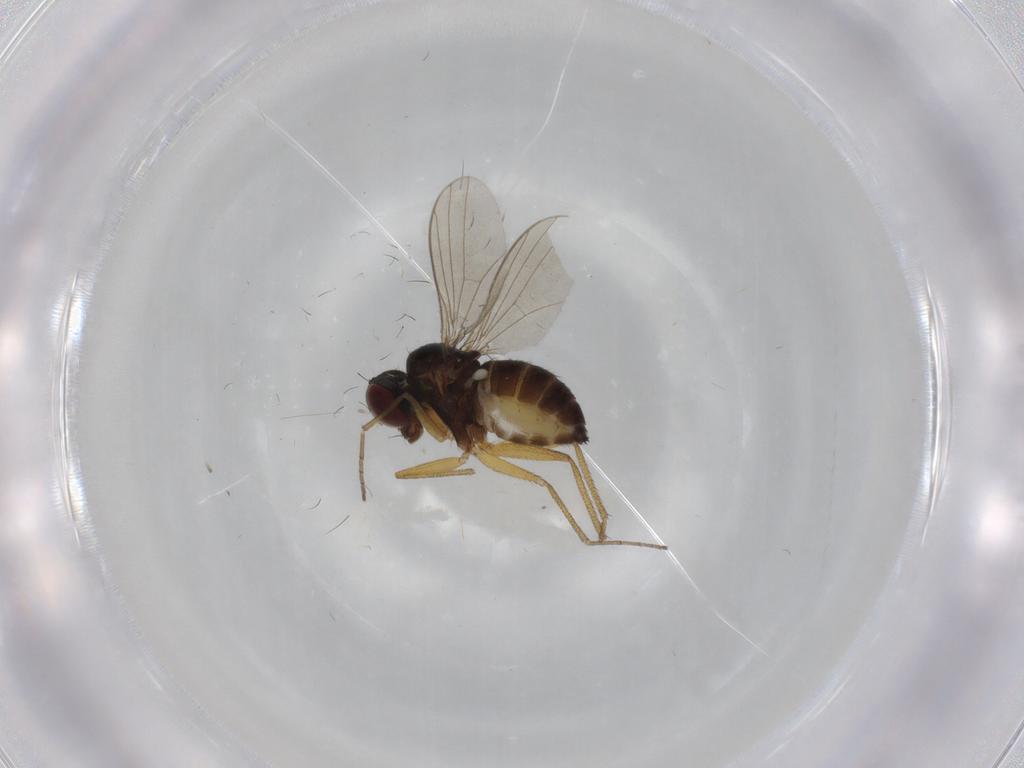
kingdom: Animalia
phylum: Arthropoda
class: Insecta
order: Diptera
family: Dolichopodidae
